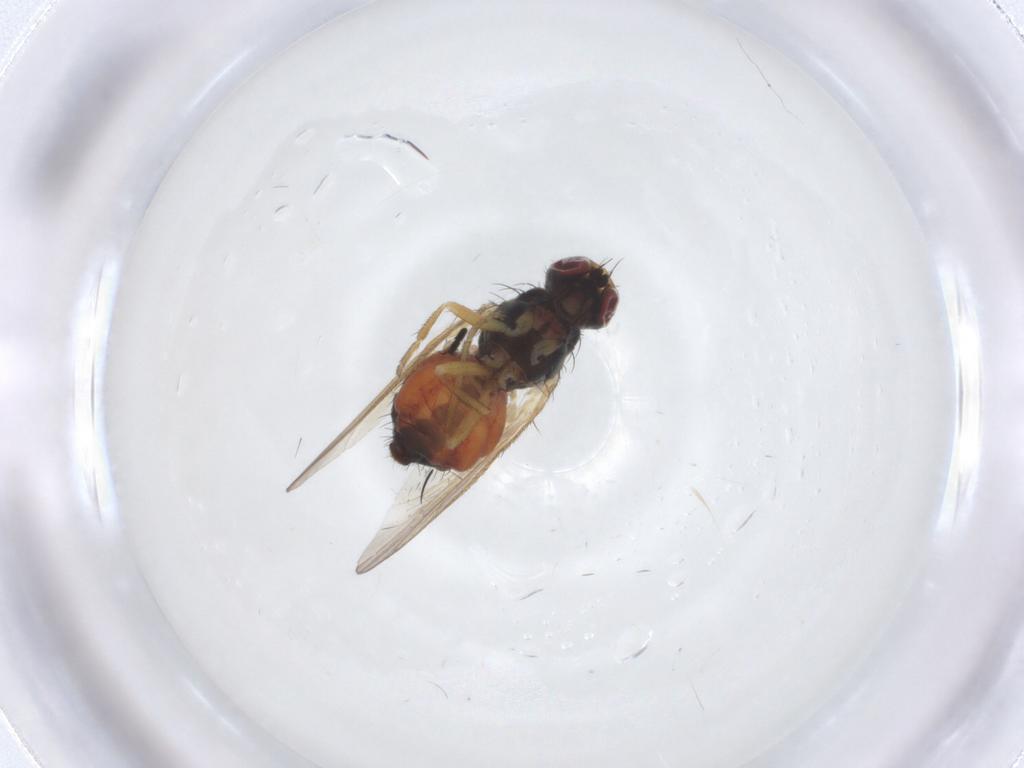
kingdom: Animalia
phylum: Arthropoda
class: Insecta
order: Diptera
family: Heleomyzidae
